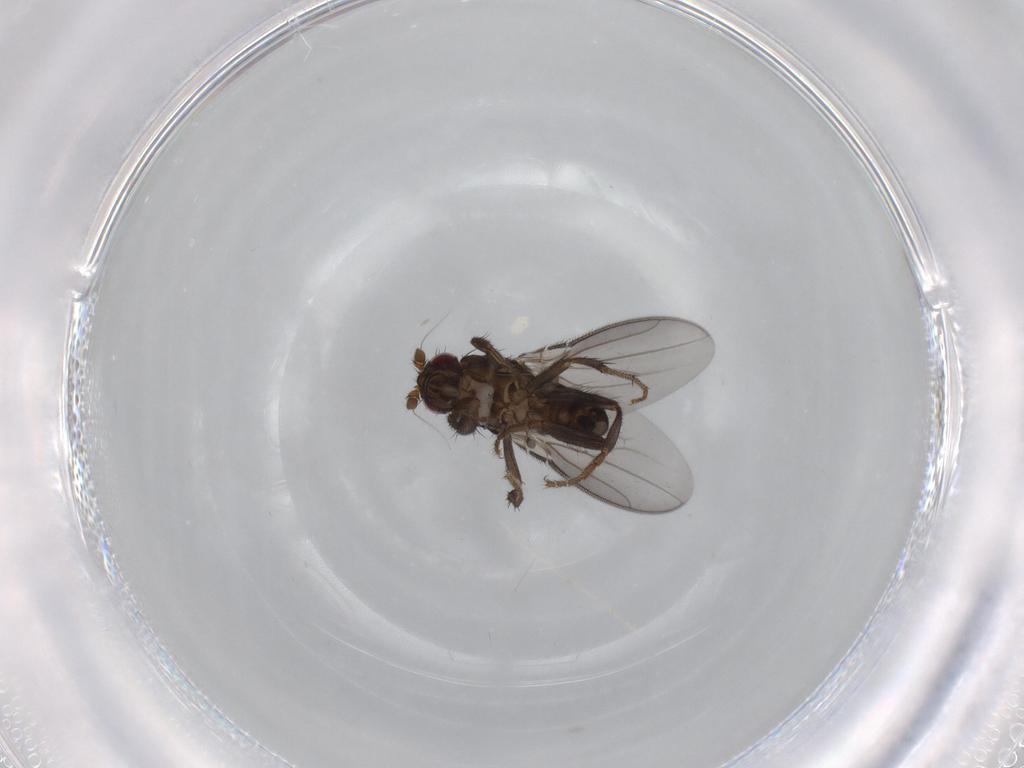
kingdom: Animalia
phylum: Arthropoda
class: Insecta
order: Diptera
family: Sphaeroceridae
